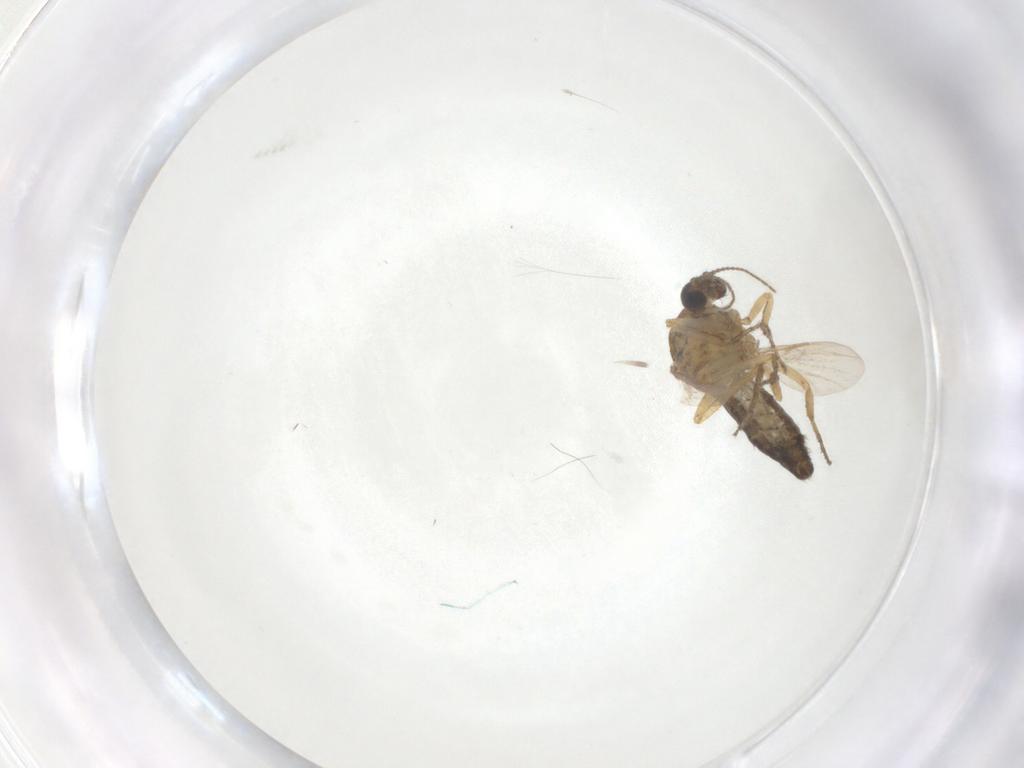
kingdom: Animalia
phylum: Arthropoda
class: Insecta
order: Diptera
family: Mycetophilidae
